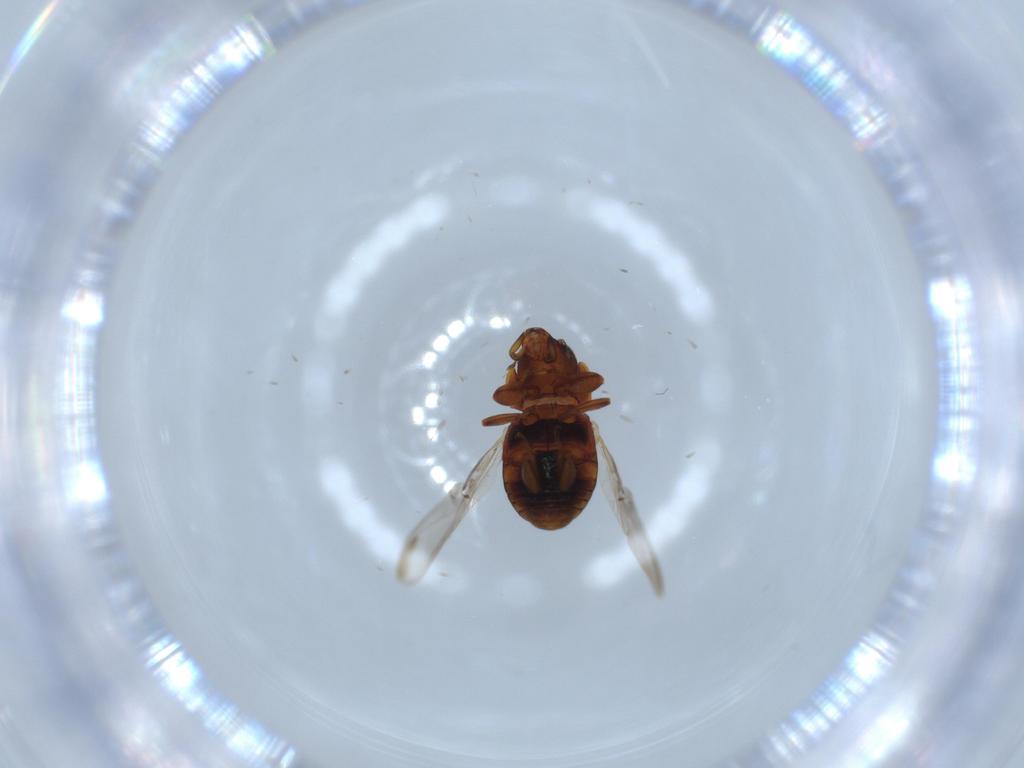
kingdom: Animalia
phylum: Arthropoda
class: Insecta
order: Coleoptera
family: Coccinellidae
